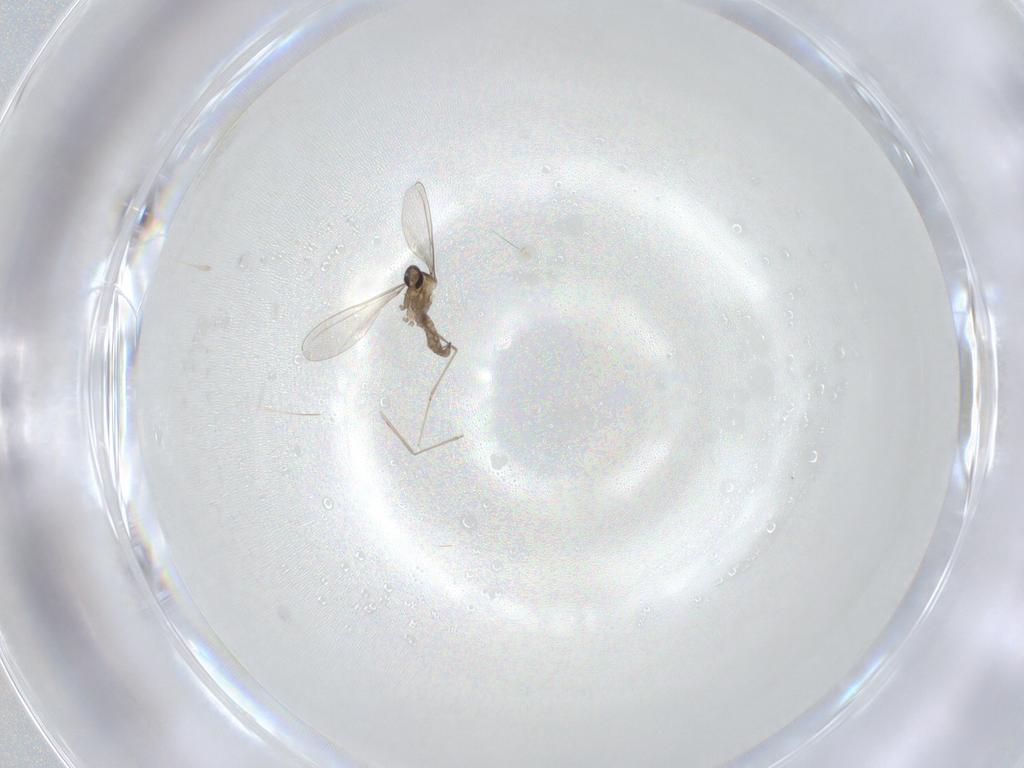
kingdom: Animalia
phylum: Arthropoda
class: Insecta
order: Diptera
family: Cecidomyiidae
